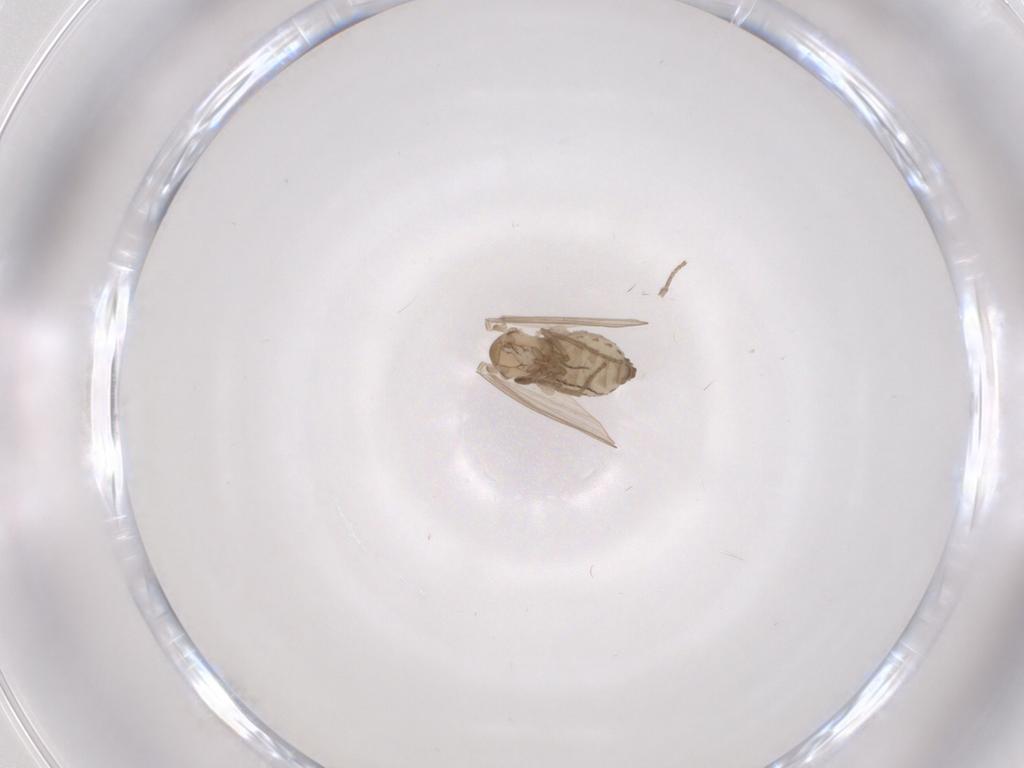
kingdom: Animalia
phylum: Arthropoda
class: Insecta
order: Diptera
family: Psychodidae
